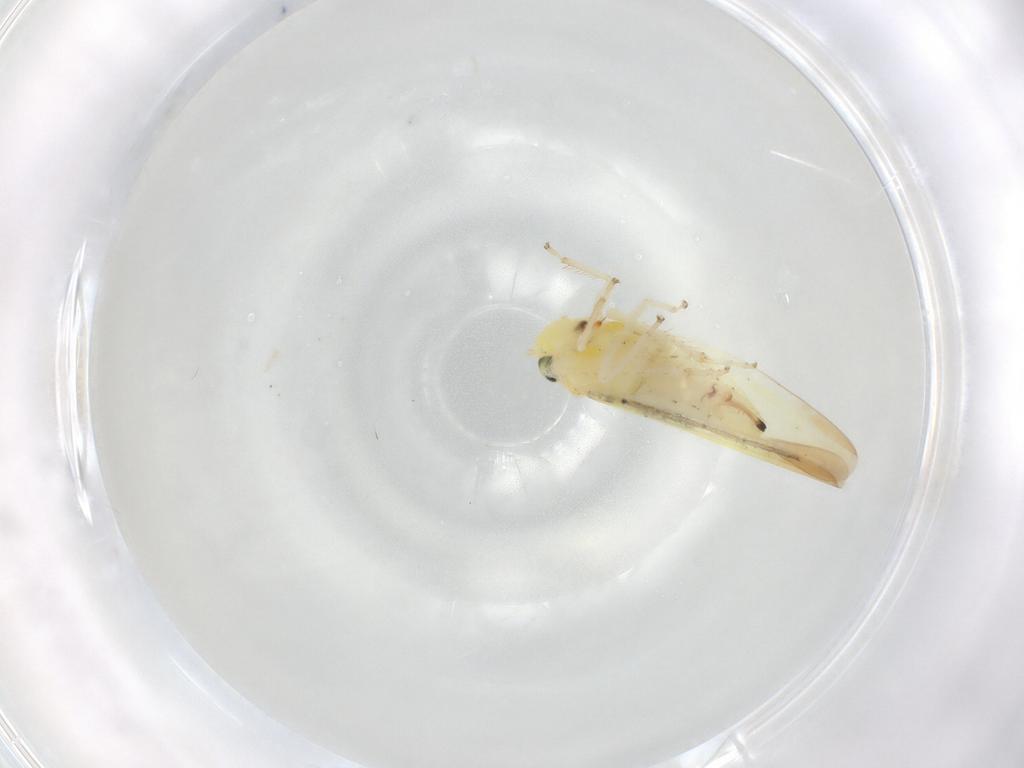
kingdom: Animalia
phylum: Arthropoda
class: Insecta
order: Hemiptera
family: Cicadellidae
